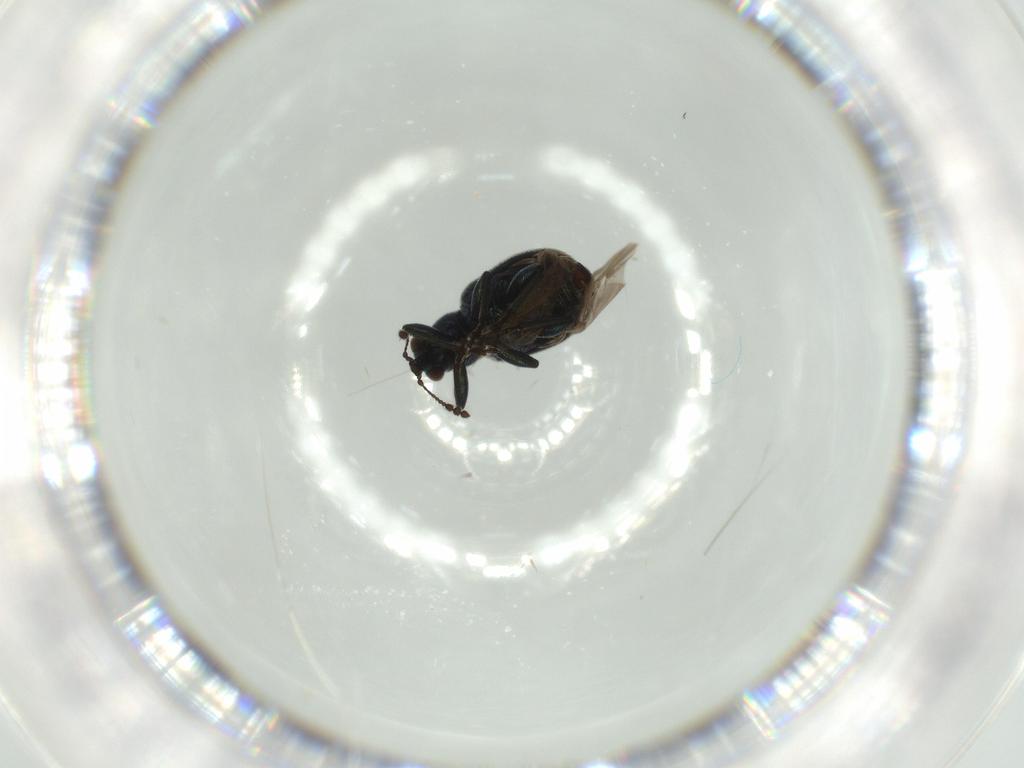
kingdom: Animalia
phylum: Arthropoda
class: Insecta
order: Coleoptera
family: Attelabidae
